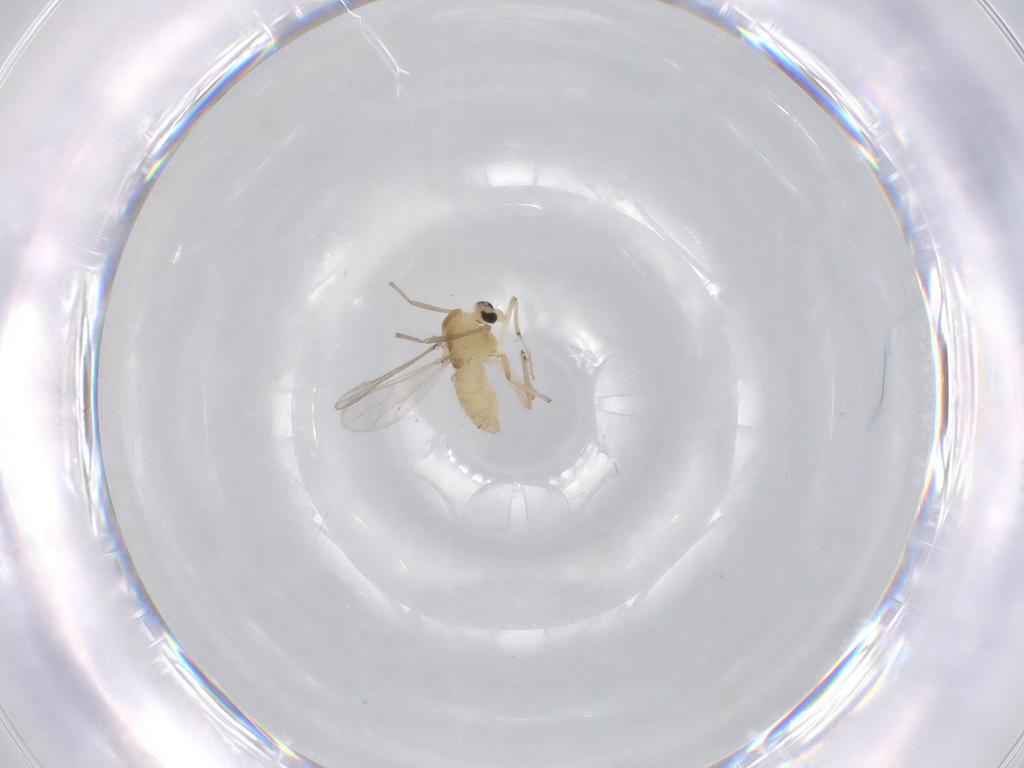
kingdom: Animalia
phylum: Arthropoda
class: Insecta
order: Diptera
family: Chironomidae
